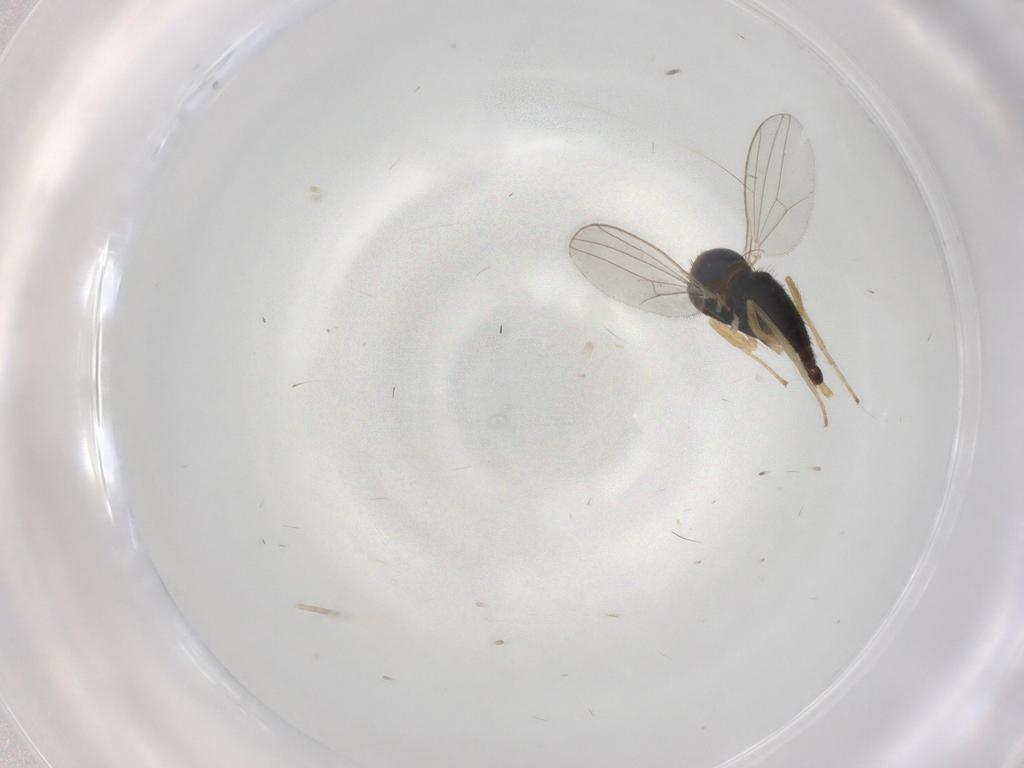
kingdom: Animalia
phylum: Arthropoda
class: Insecta
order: Diptera
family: Dolichopodidae
